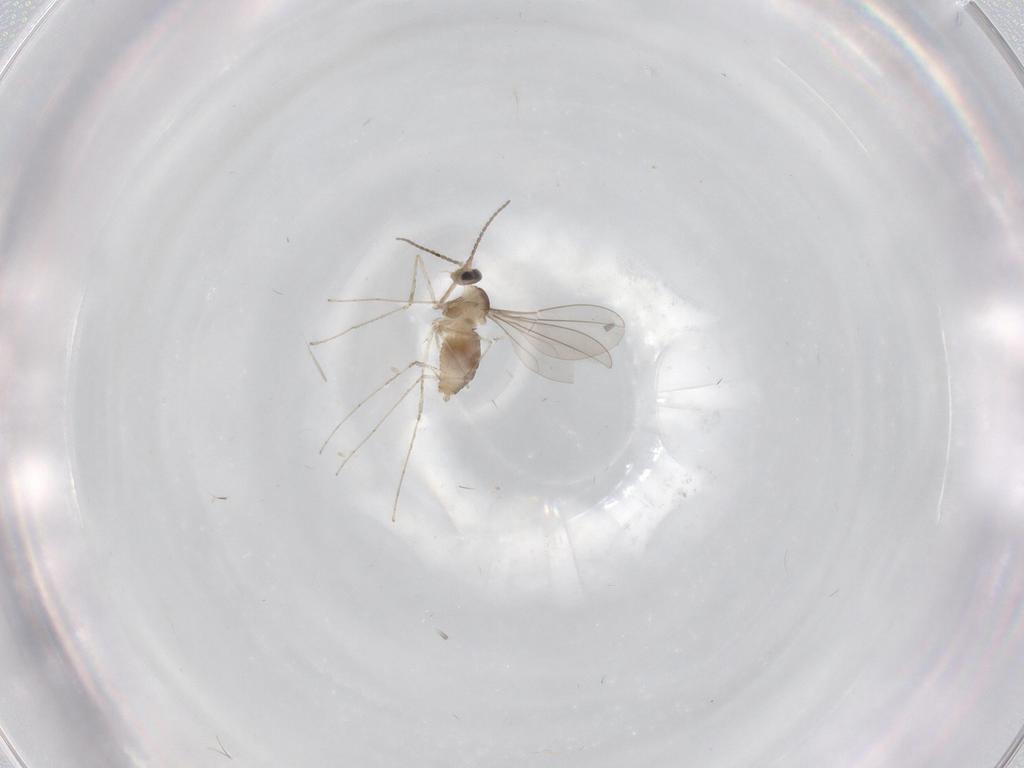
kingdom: Animalia
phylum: Arthropoda
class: Insecta
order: Diptera
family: Cecidomyiidae
